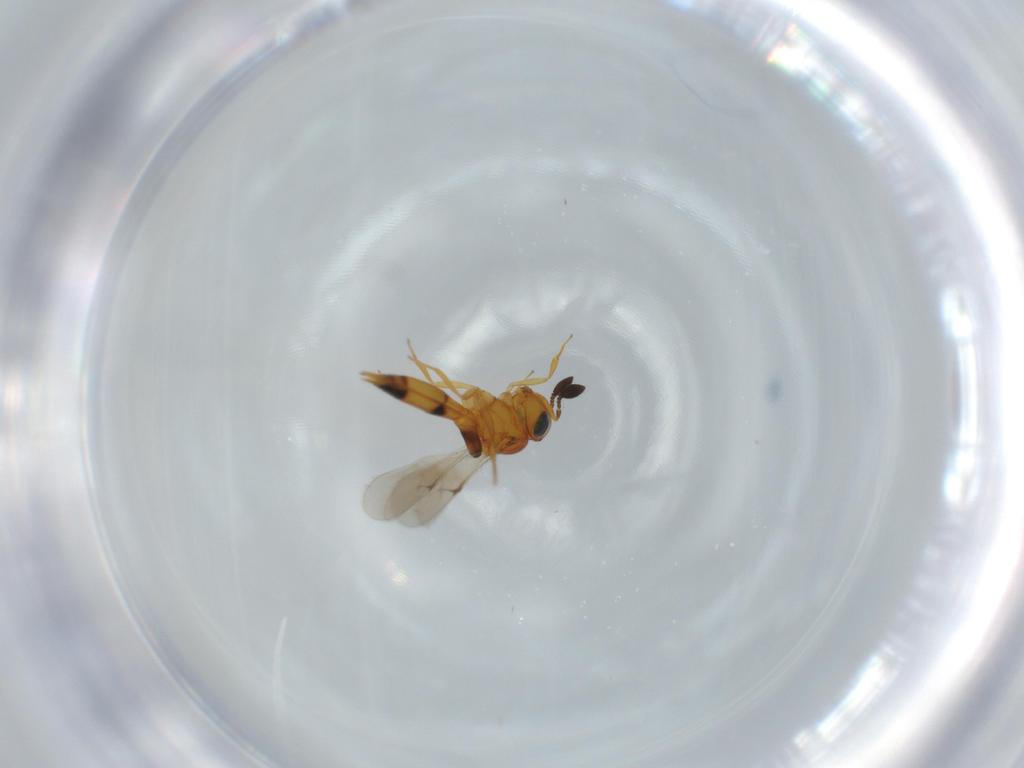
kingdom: Animalia
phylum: Arthropoda
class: Insecta
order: Hymenoptera
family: Scelionidae
